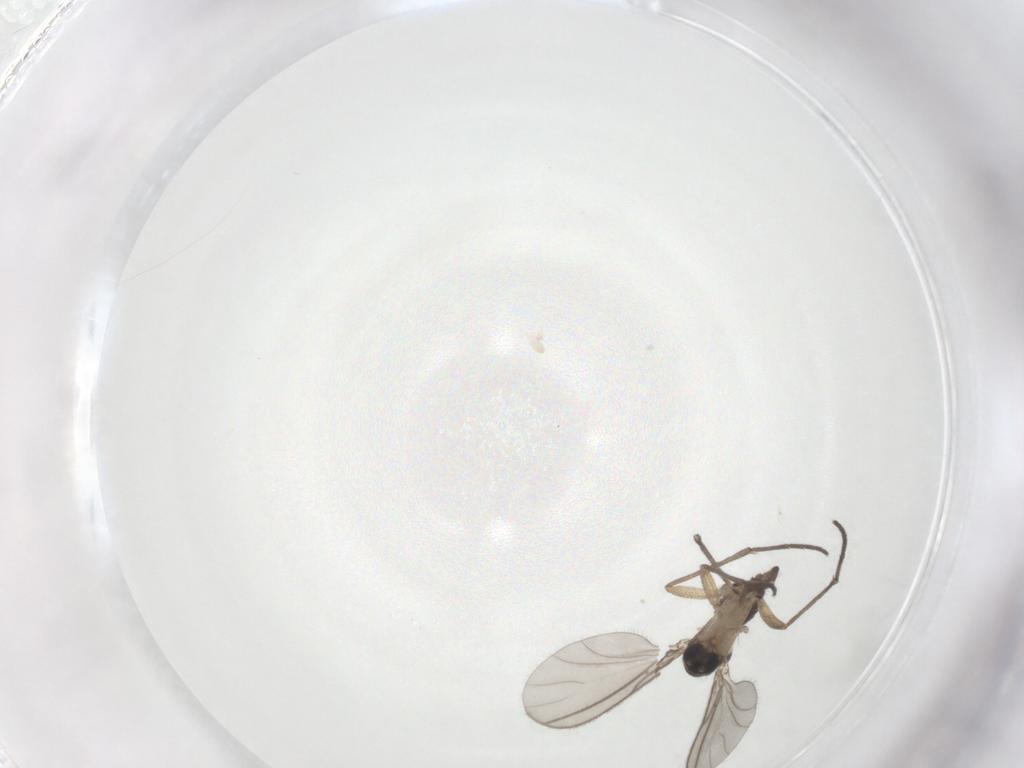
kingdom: Animalia
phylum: Arthropoda
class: Insecta
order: Diptera
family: Sciaridae
